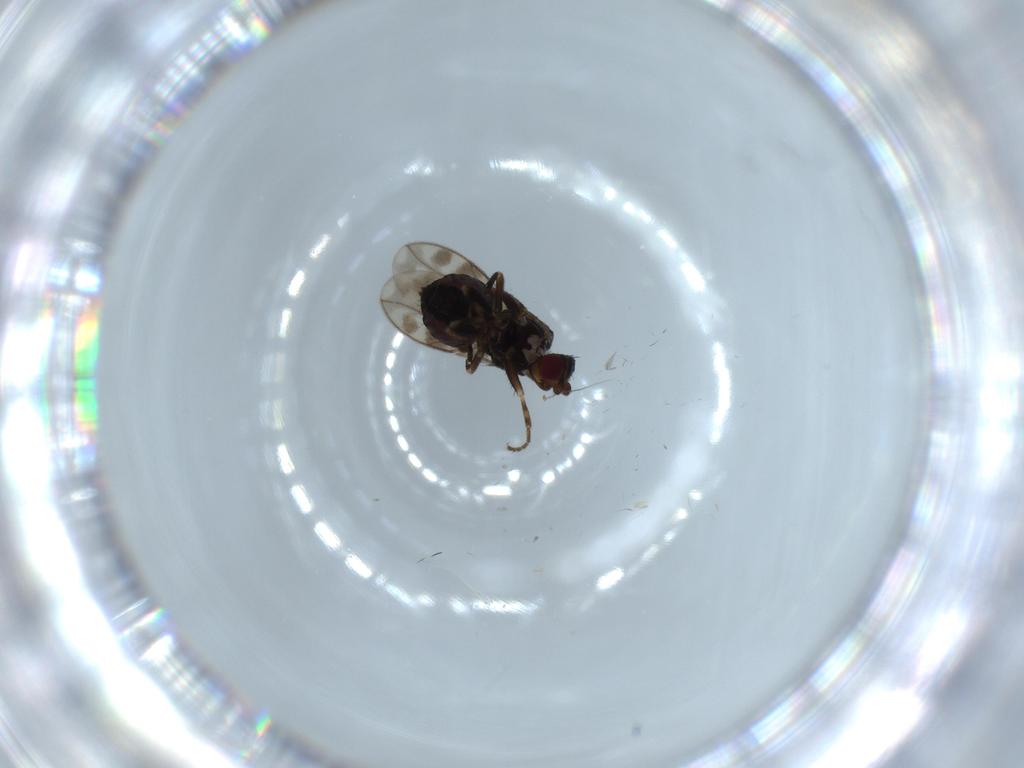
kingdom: Animalia
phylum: Arthropoda
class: Insecta
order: Diptera
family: Sphaeroceridae
